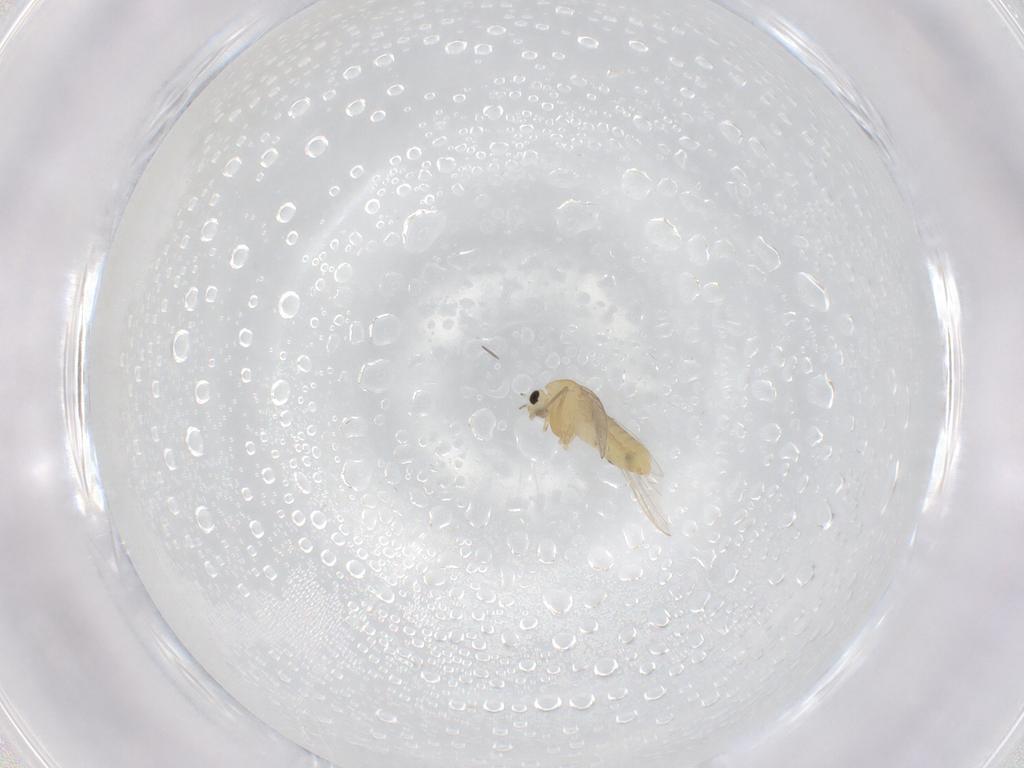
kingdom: Animalia
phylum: Arthropoda
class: Insecta
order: Diptera
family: Chironomidae
